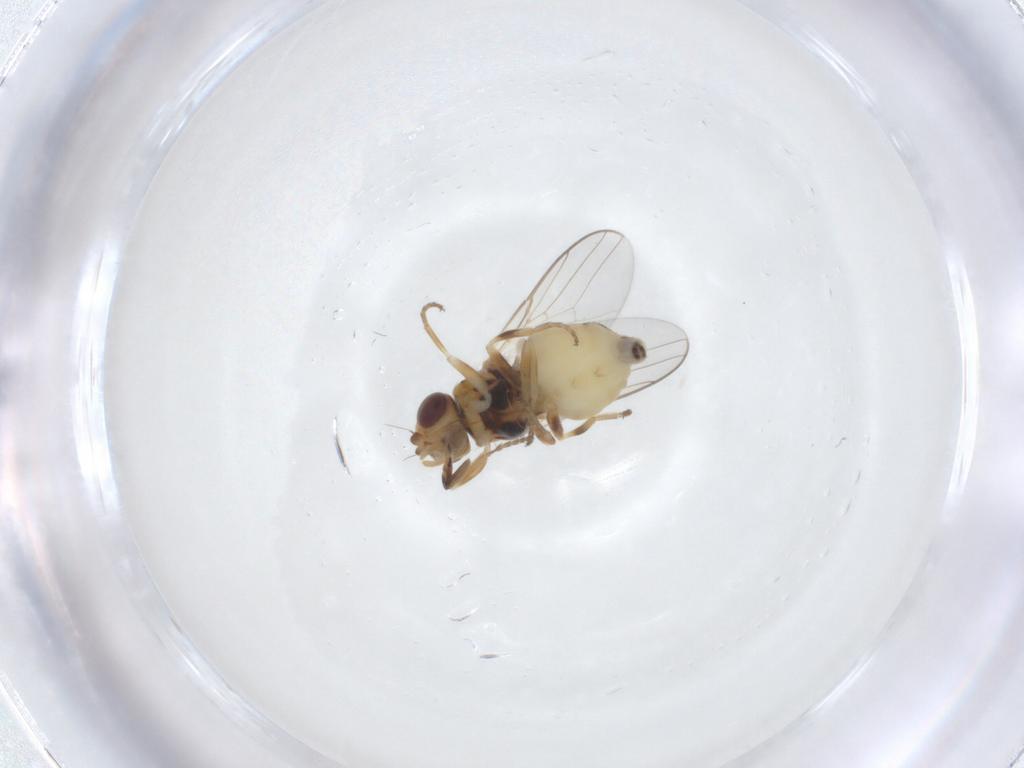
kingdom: Animalia
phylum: Arthropoda
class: Insecta
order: Diptera
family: Chloropidae
